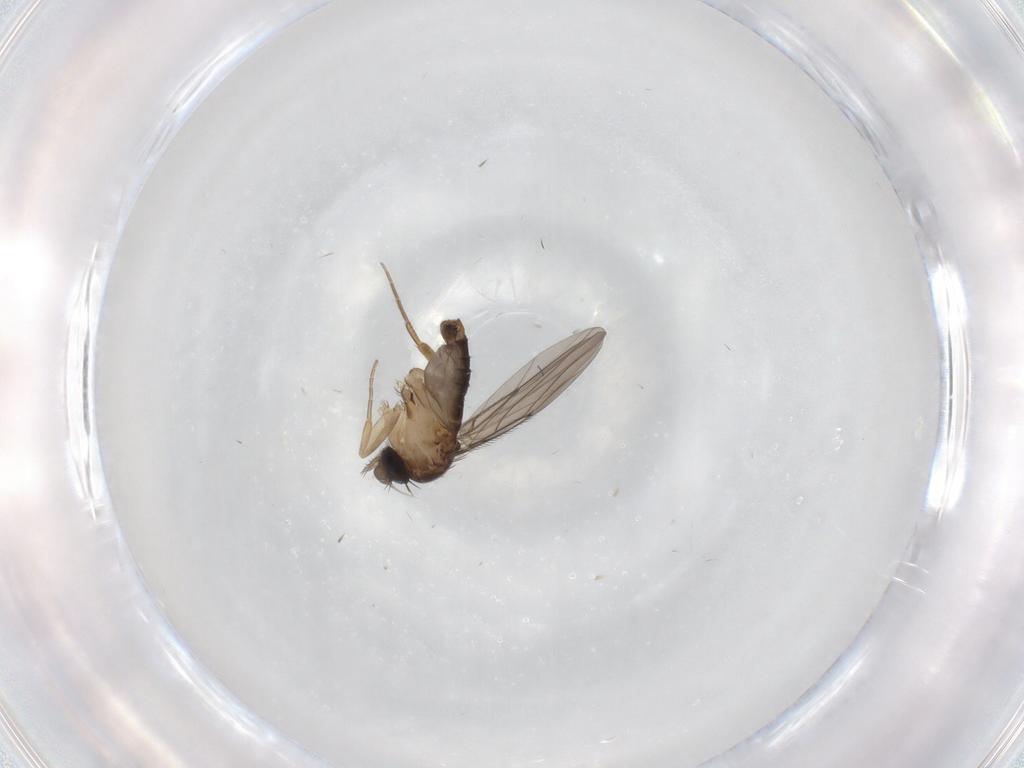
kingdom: Animalia
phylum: Arthropoda
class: Insecta
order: Diptera
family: Phoridae
